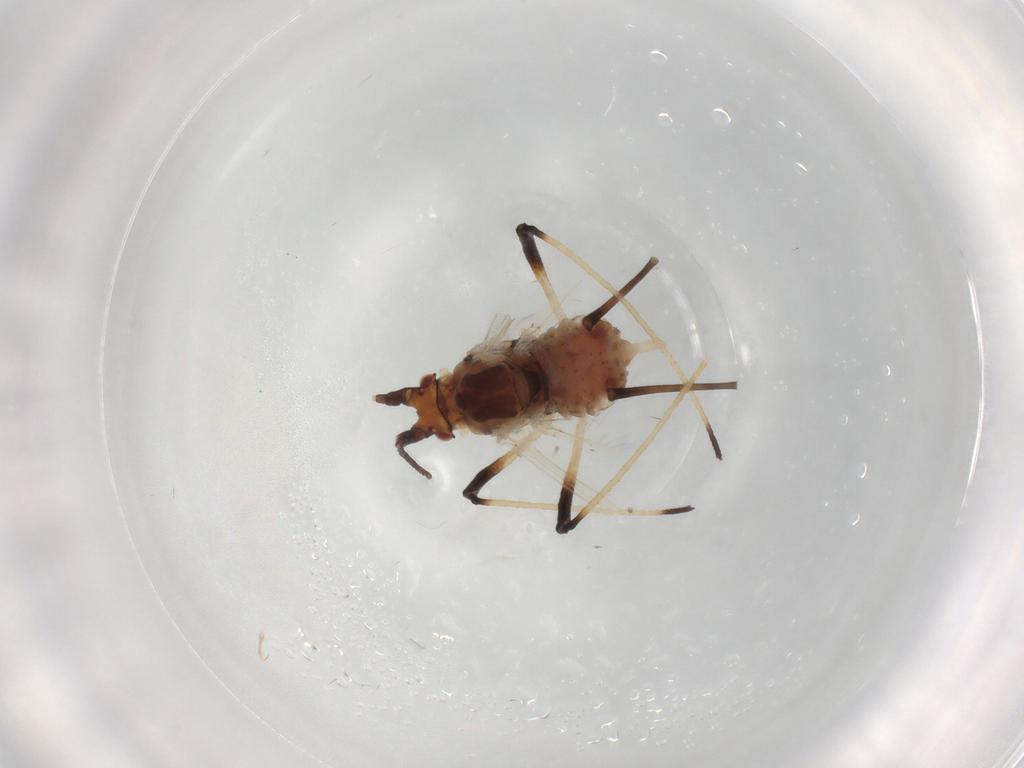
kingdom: Animalia
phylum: Arthropoda
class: Insecta
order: Hemiptera
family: Aphididae
